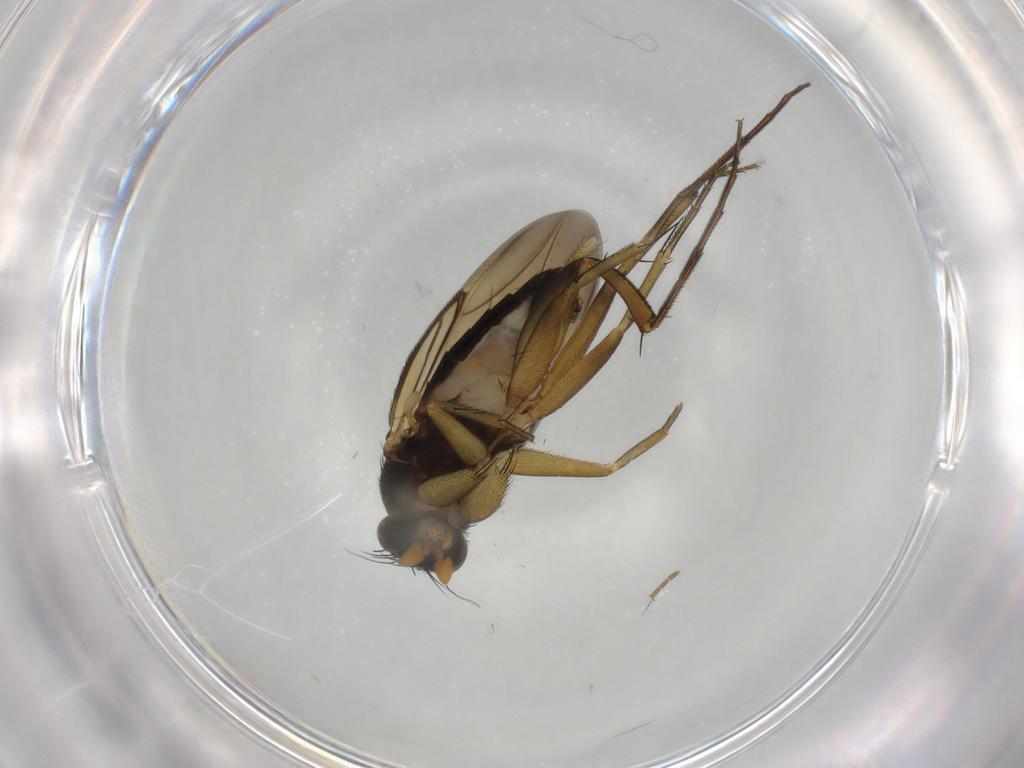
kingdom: Animalia
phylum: Arthropoda
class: Insecta
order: Diptera
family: Phoridae
